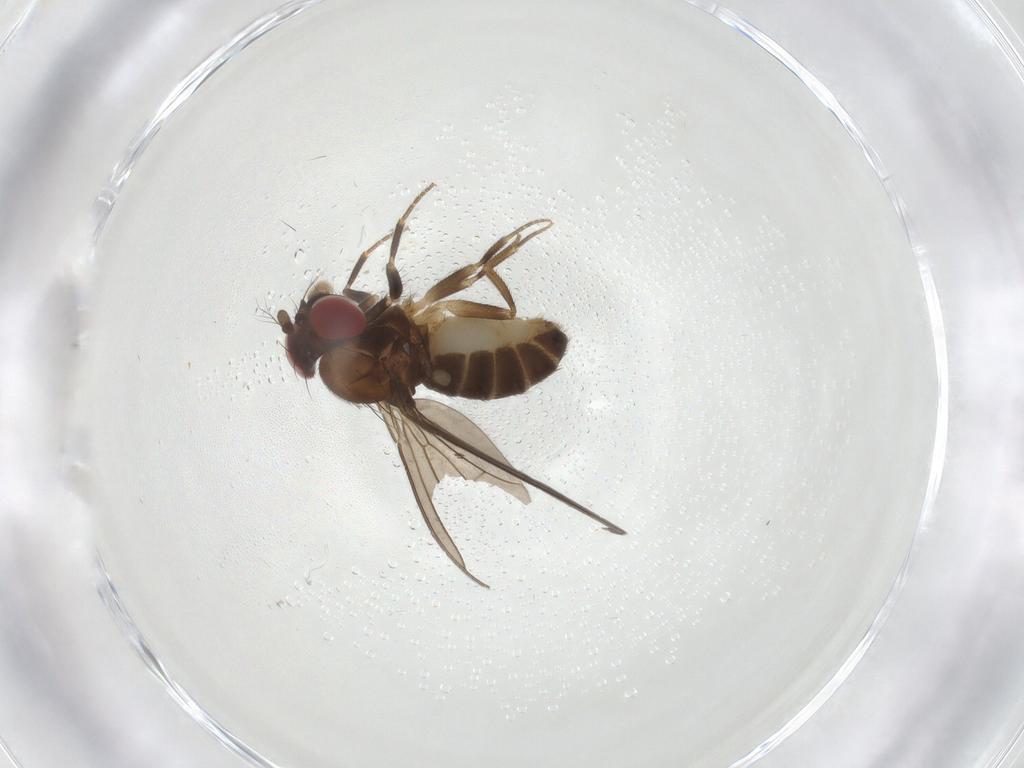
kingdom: Animalia
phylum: Arthropoda
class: Insecta
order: Diptera
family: Drosophilidae
